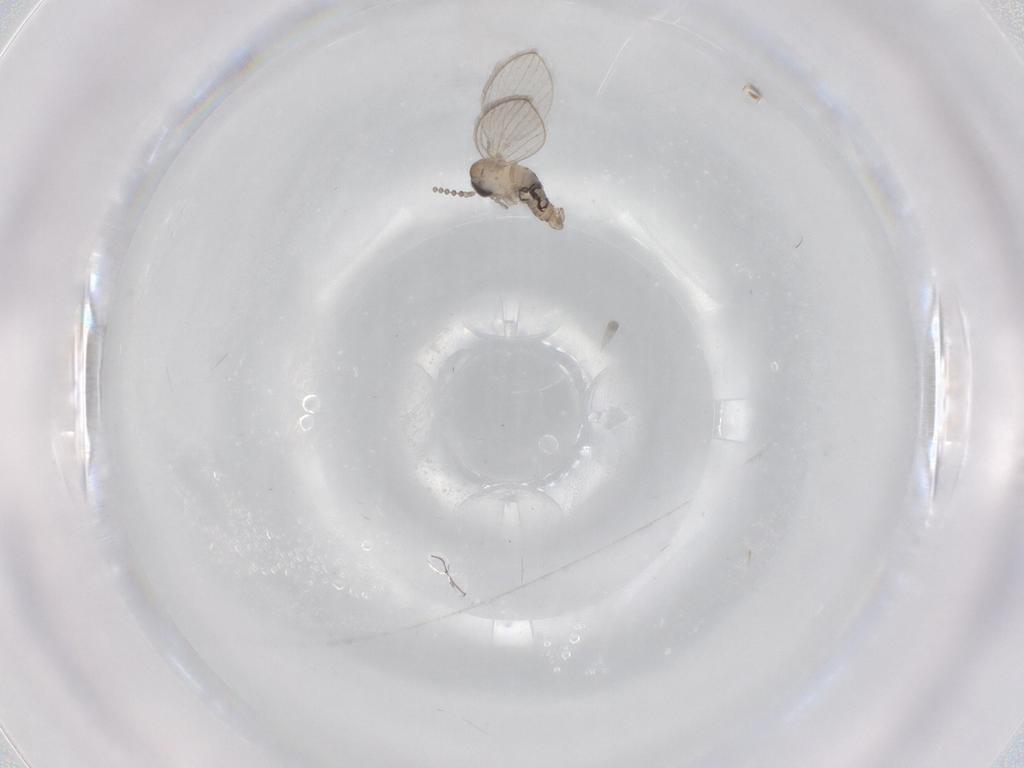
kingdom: Animalia
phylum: Arthropoda
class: Insecta
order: Diptera
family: Psychodidae
